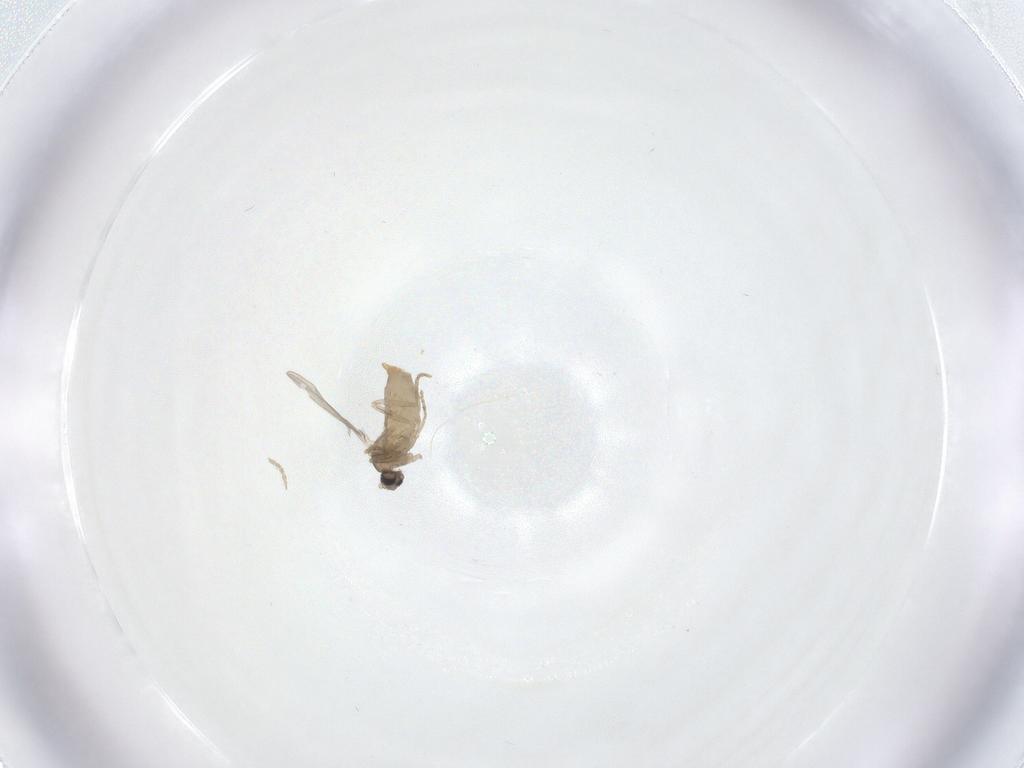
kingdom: Animalia
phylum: Arthropoda
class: Insecta
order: Diptera
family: Cecidomyiidae
